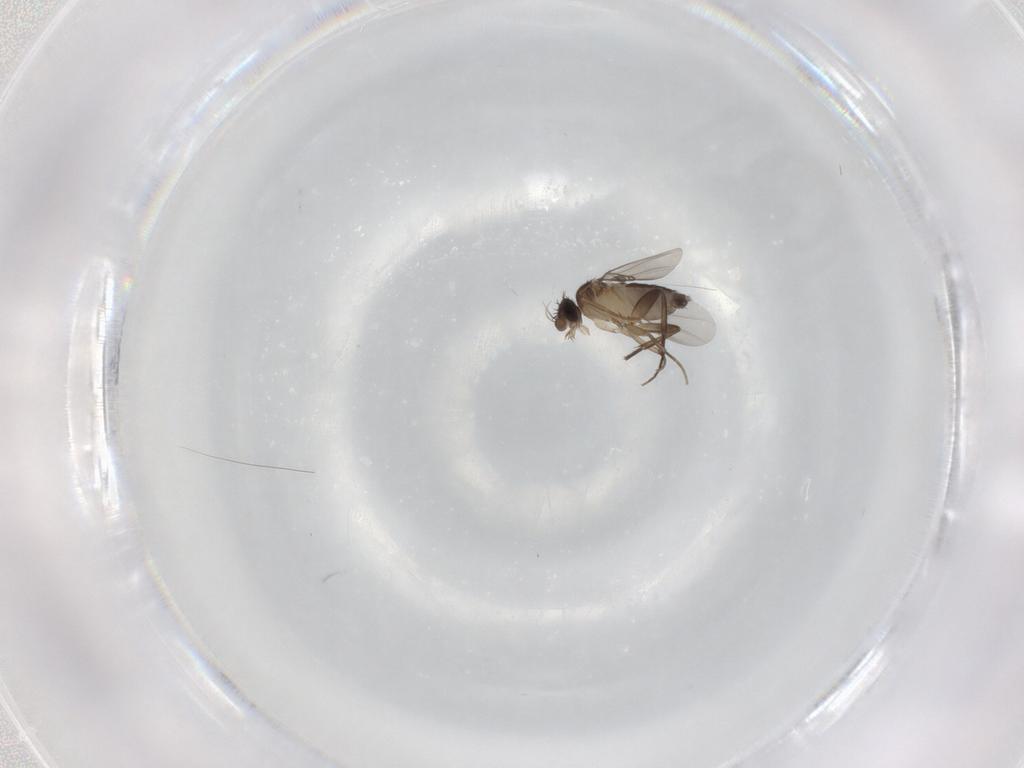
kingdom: Animalia
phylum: Arthropoda
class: Insecta
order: Diptera
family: Phoridae
